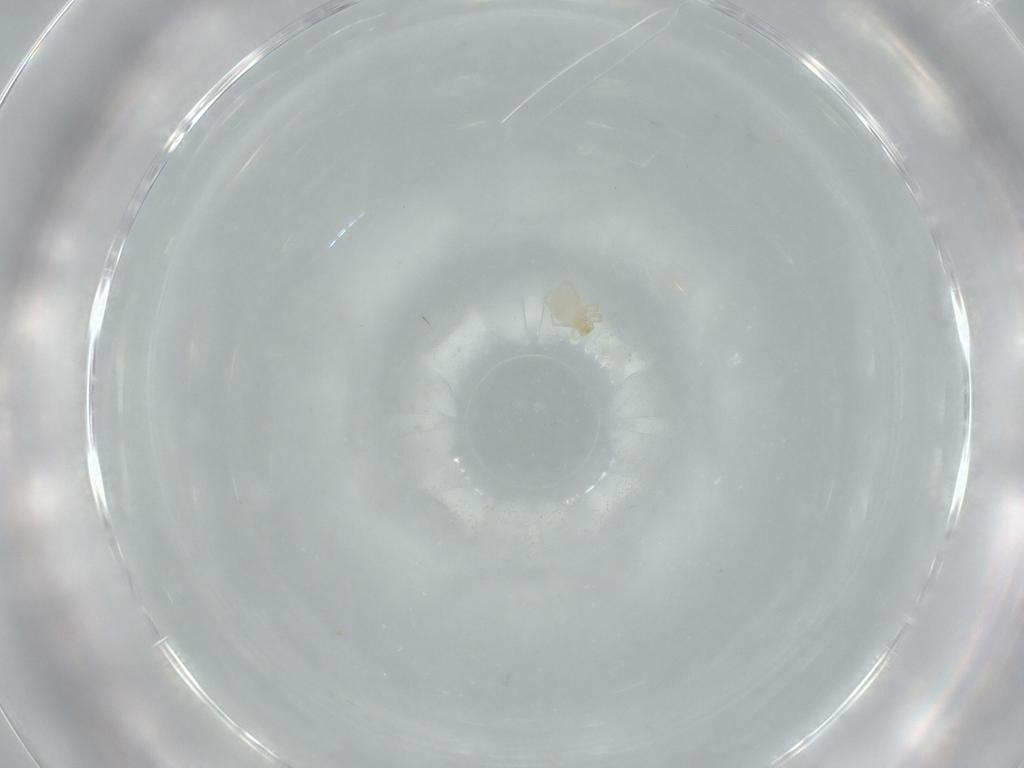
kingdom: Animalia
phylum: Arthropoda
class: Arachnida
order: Trombidiformes
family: Erythraeidae
